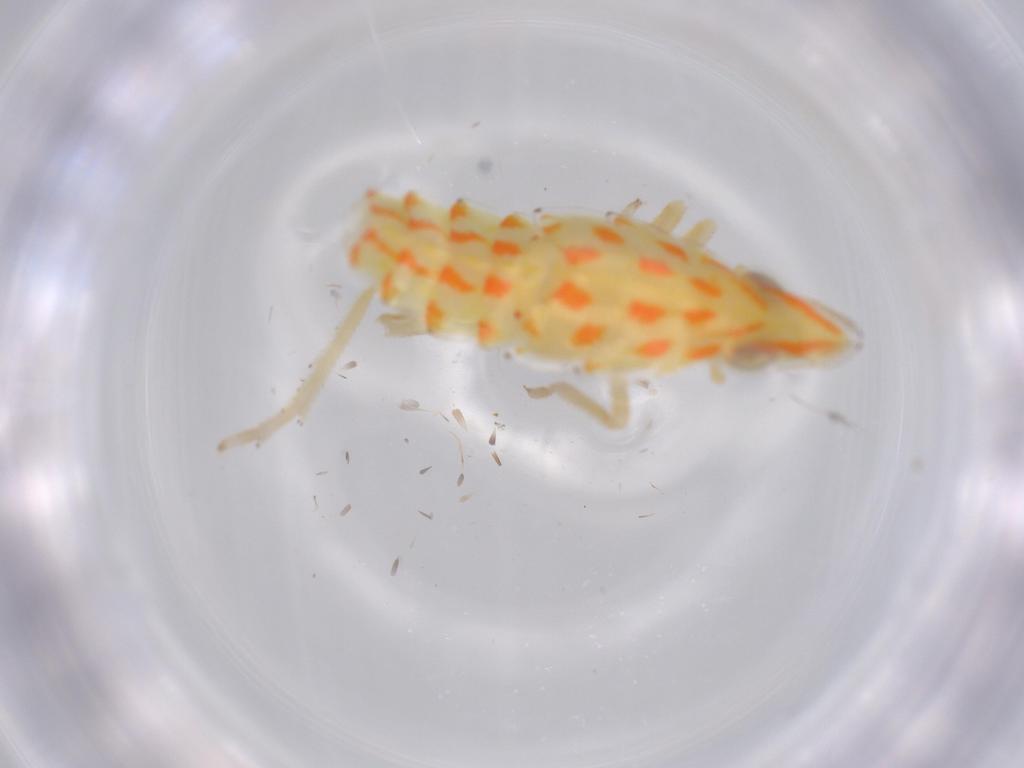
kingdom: Animalia
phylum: Arthropoda
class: Insecta
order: Hemiptera
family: Tropiduchidae
